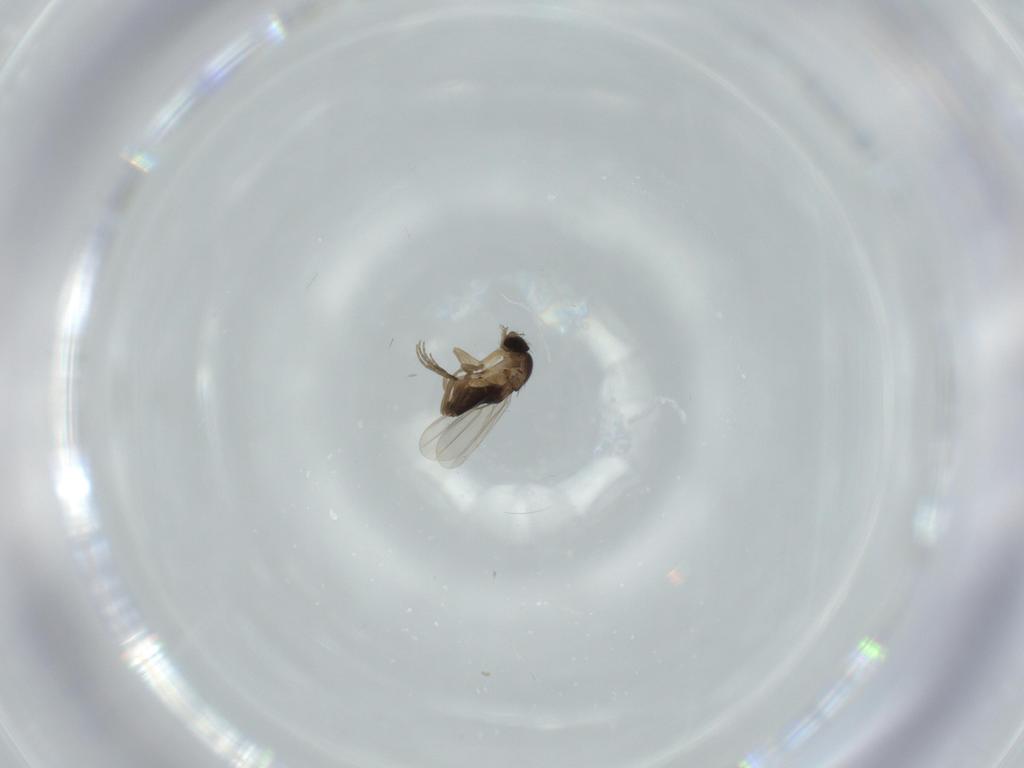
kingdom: Animalia
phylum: Arthropoda
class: Insecta
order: Diptera
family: Phoridae
